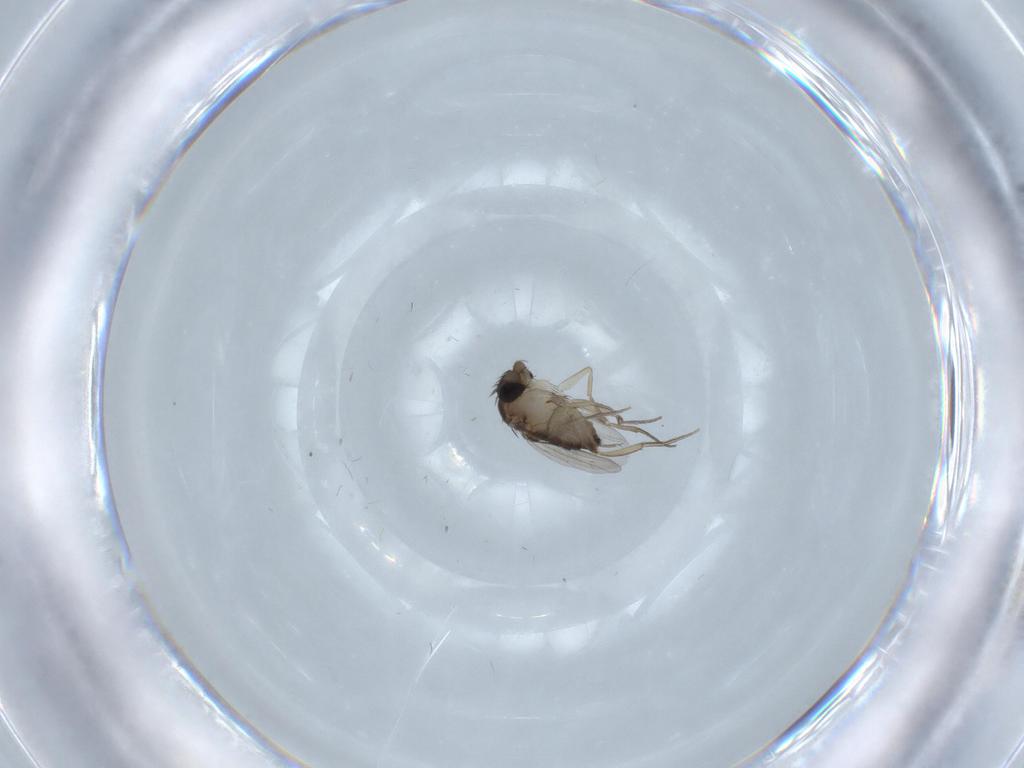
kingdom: Animalia
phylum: Arthropoda
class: Insecta
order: Diptera
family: Phoridae
